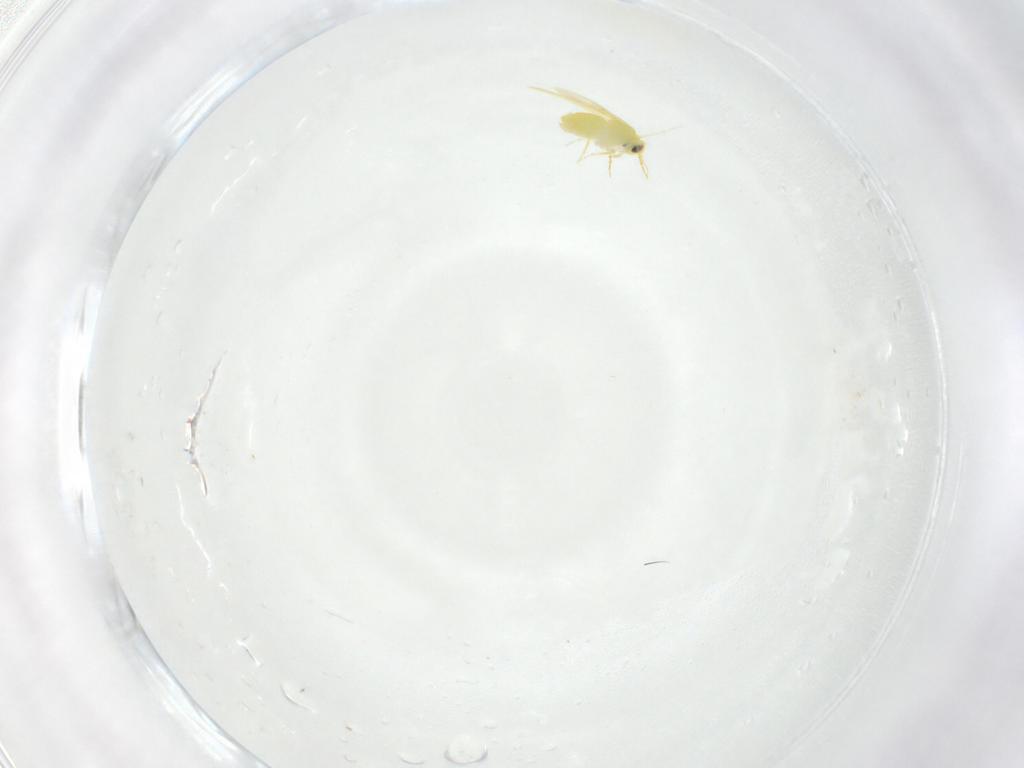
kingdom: Animalia
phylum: Arthropoda
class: Insecta
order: Hemiptera
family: Aleyrodidae
